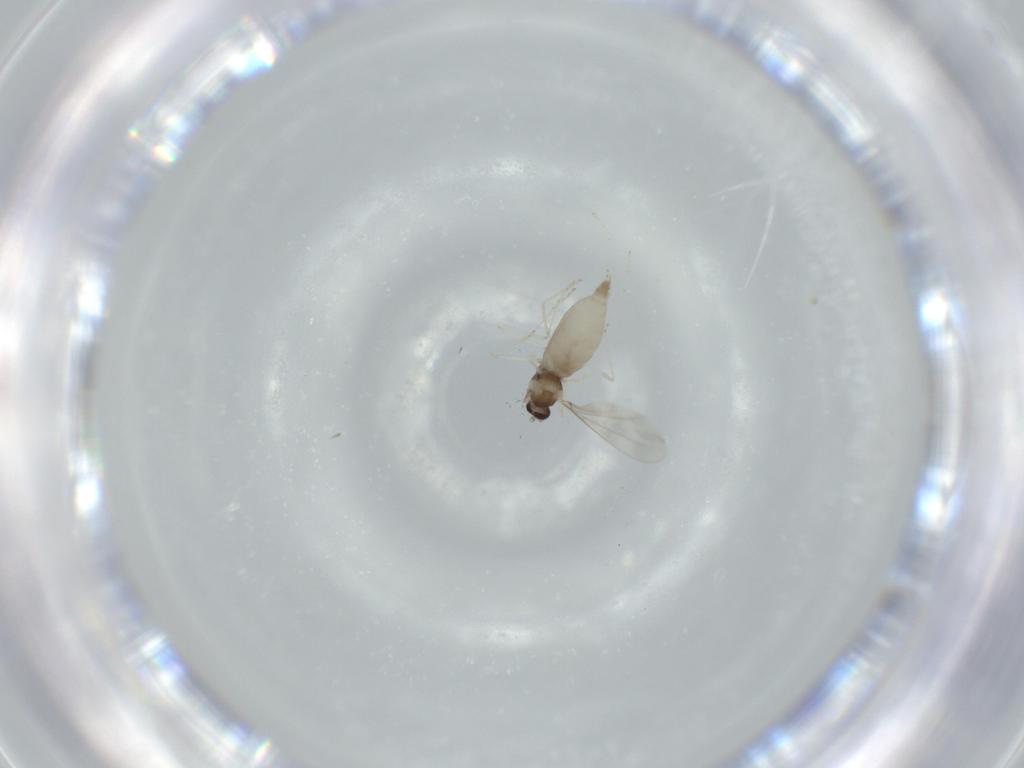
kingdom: Animalia
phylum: Arthropoda
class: Insecta
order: Diptera
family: Cecidomyiidae
